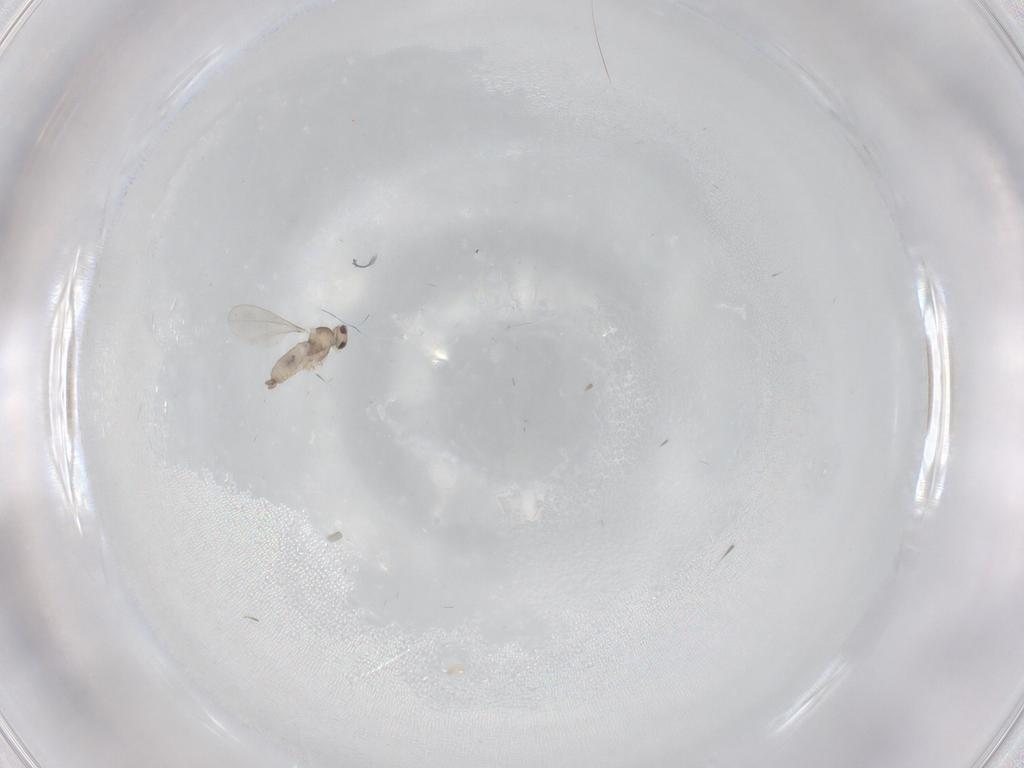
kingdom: Animalia
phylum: Arthropoda
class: Insecta
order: Diptera
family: Cecidomyiidae
